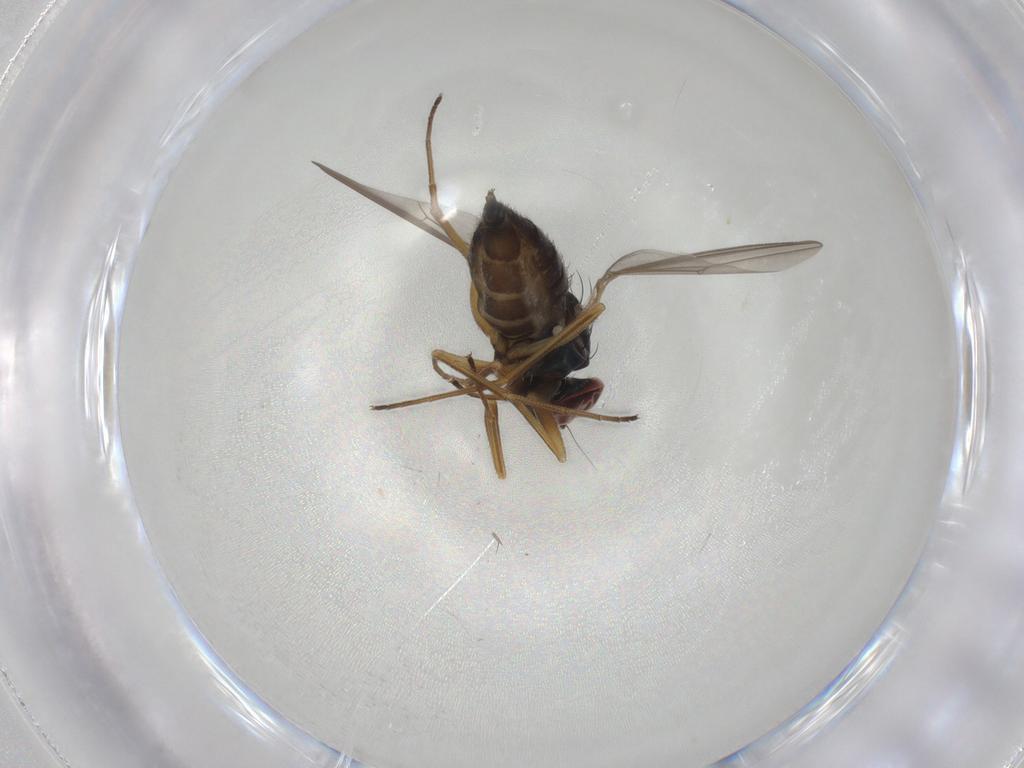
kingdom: Animalia
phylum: Arthropoda
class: Insecta
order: Diptera
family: Dolichopodidae
